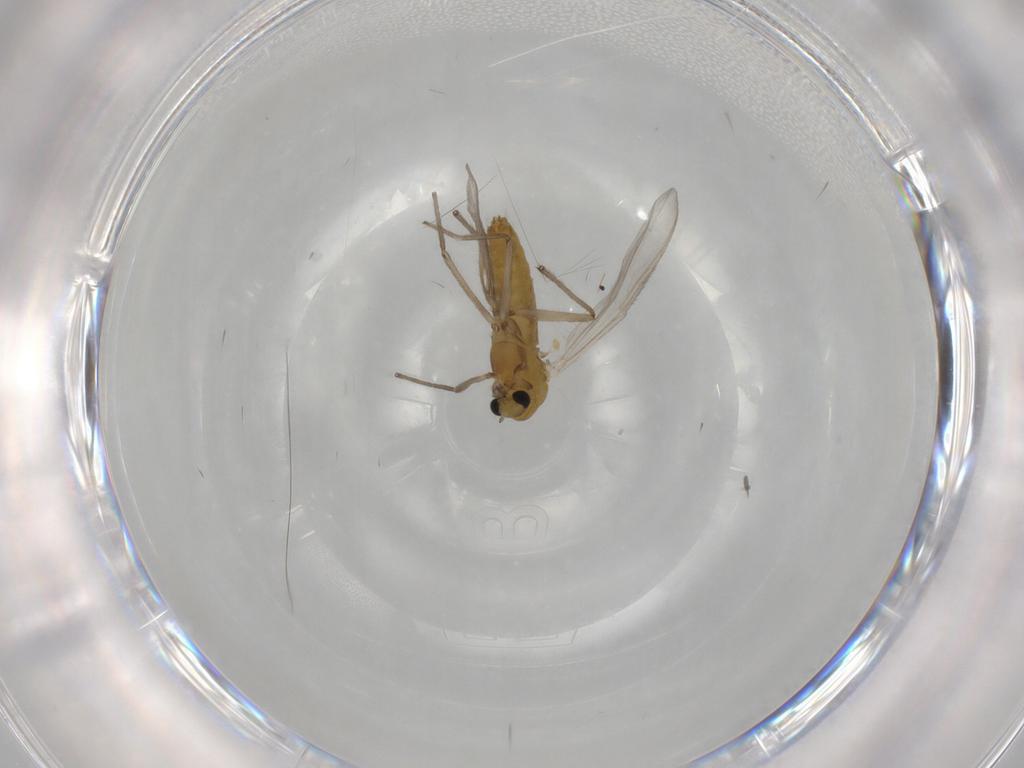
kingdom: Animalia
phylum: Arthropoda
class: Insecta
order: Diptera
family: Chironomidae
